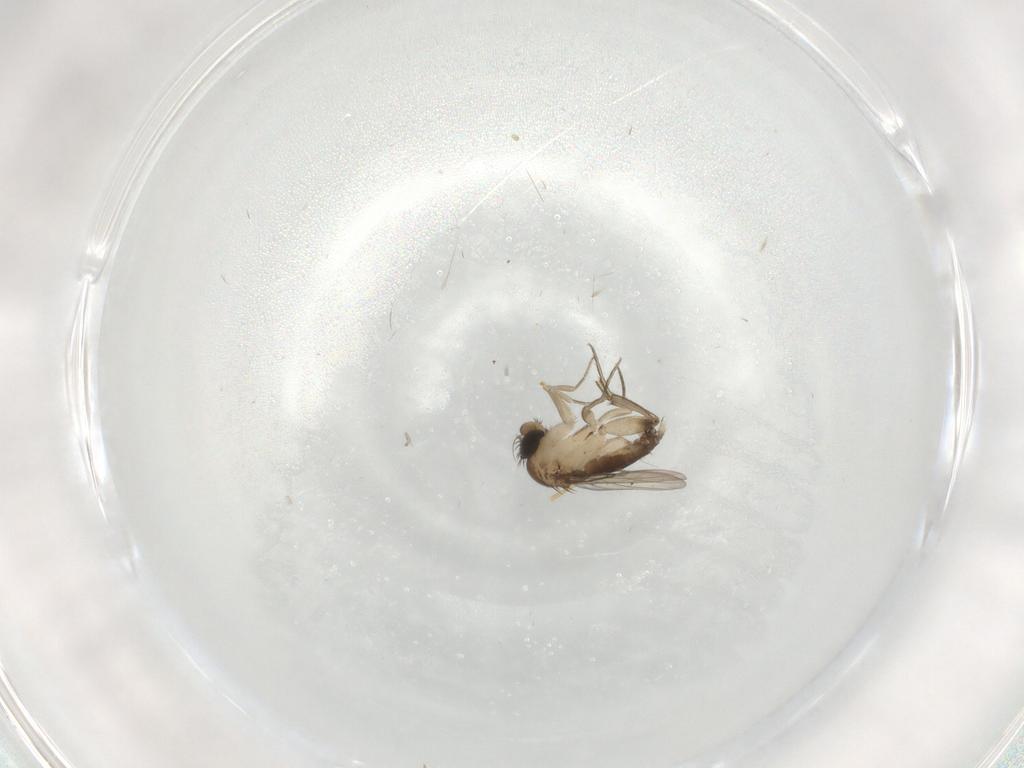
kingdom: Animalia
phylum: Arthropoda
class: Insecta
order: Diptera
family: Phoridae
